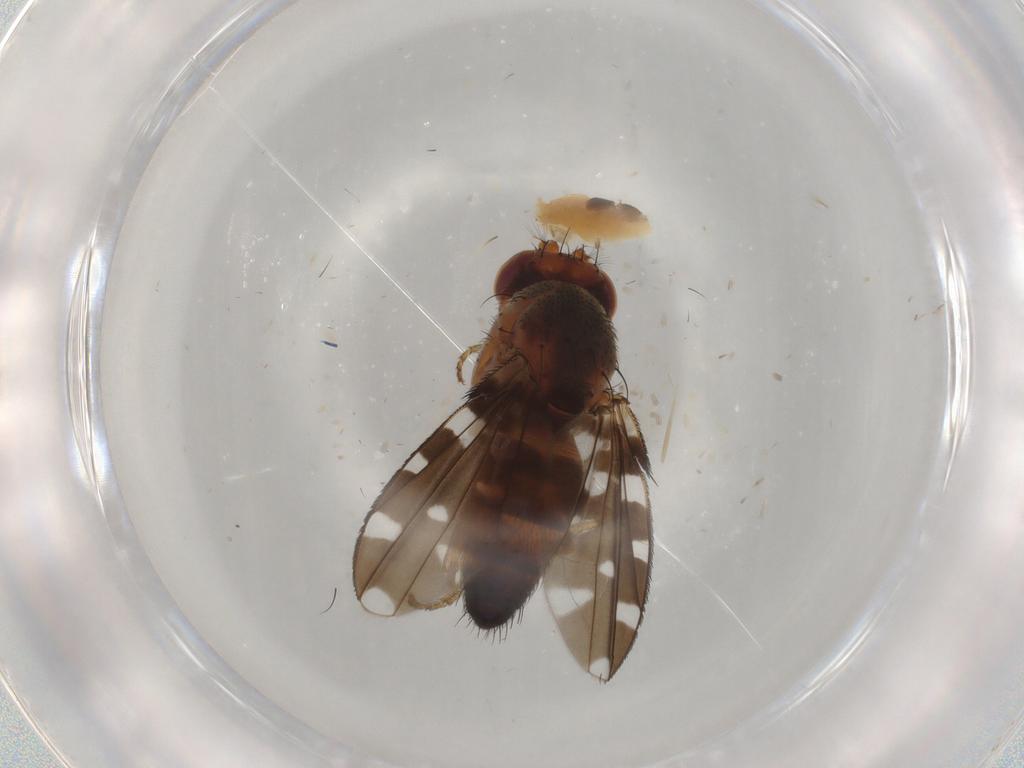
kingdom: Animalia
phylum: Arthropoda
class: Insecta
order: Diptera
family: Ephydridae
